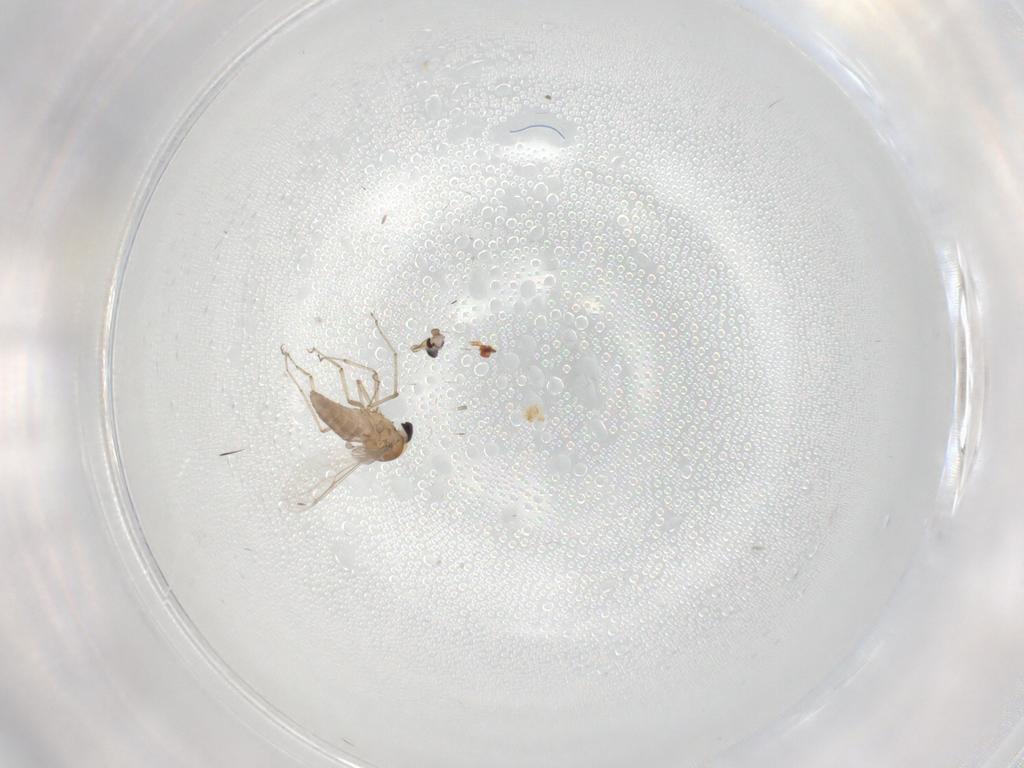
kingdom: Animalia
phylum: Arthropoda
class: Insecta
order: Diptera
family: Ceratopogonidae
